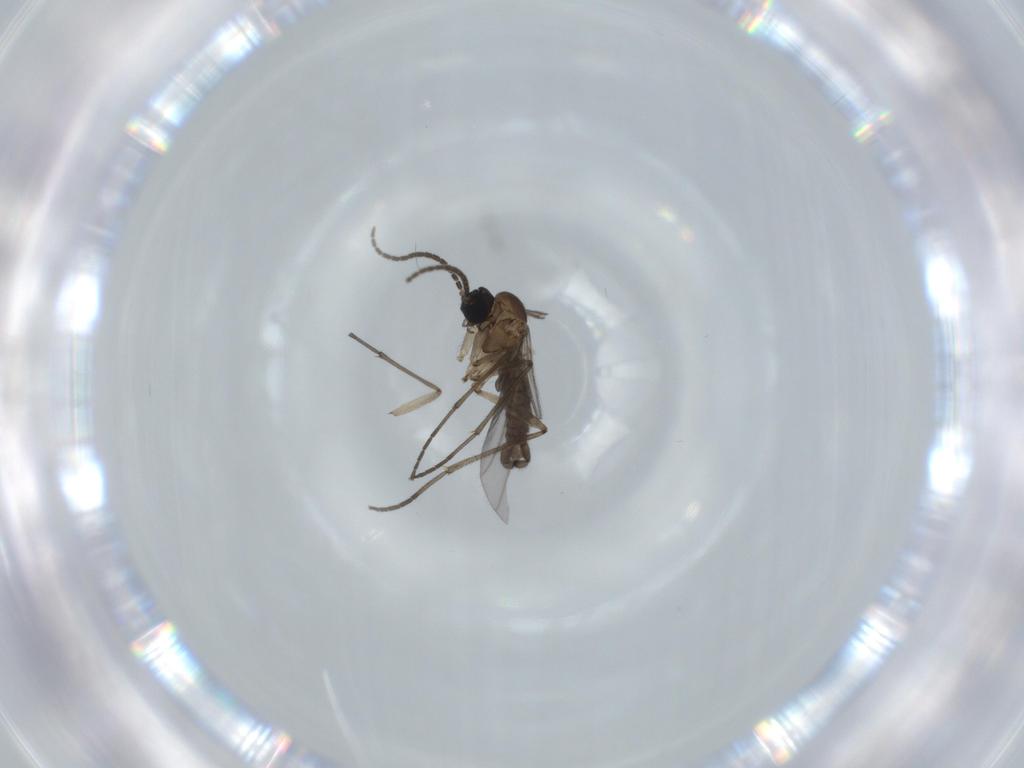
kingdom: Animalia
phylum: Arthropoda
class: Insecta
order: Diptera
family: Sciaridae
